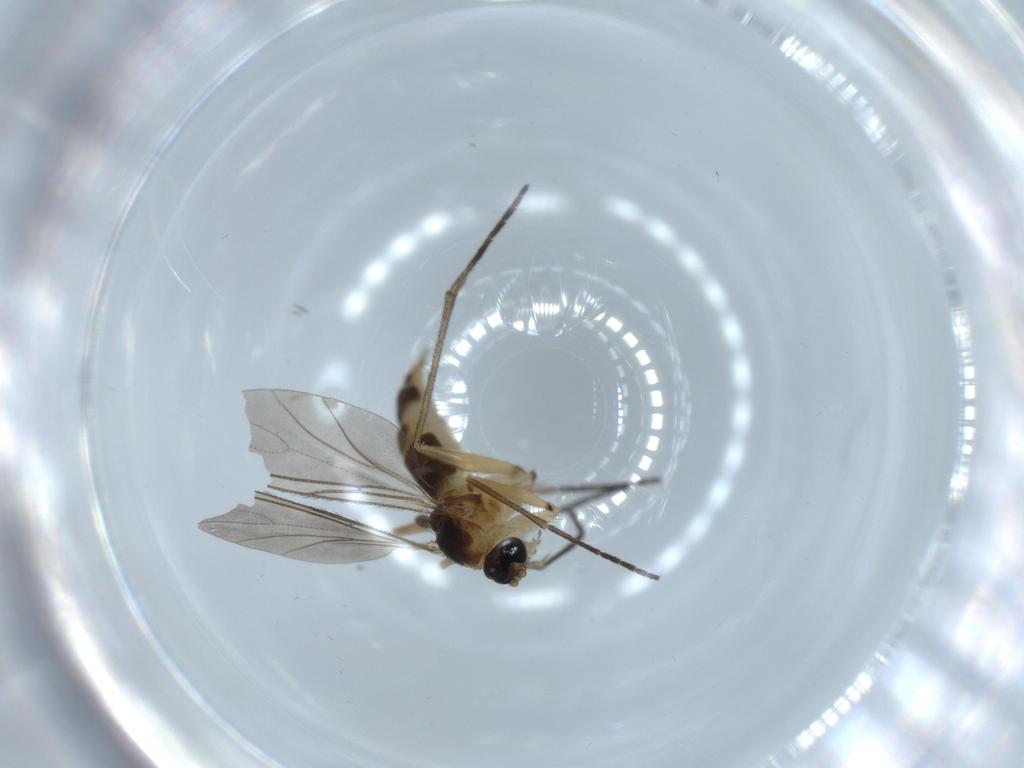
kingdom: Animalia
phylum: Arthropoda
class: Insecta
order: Diptera
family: Sciaridae
